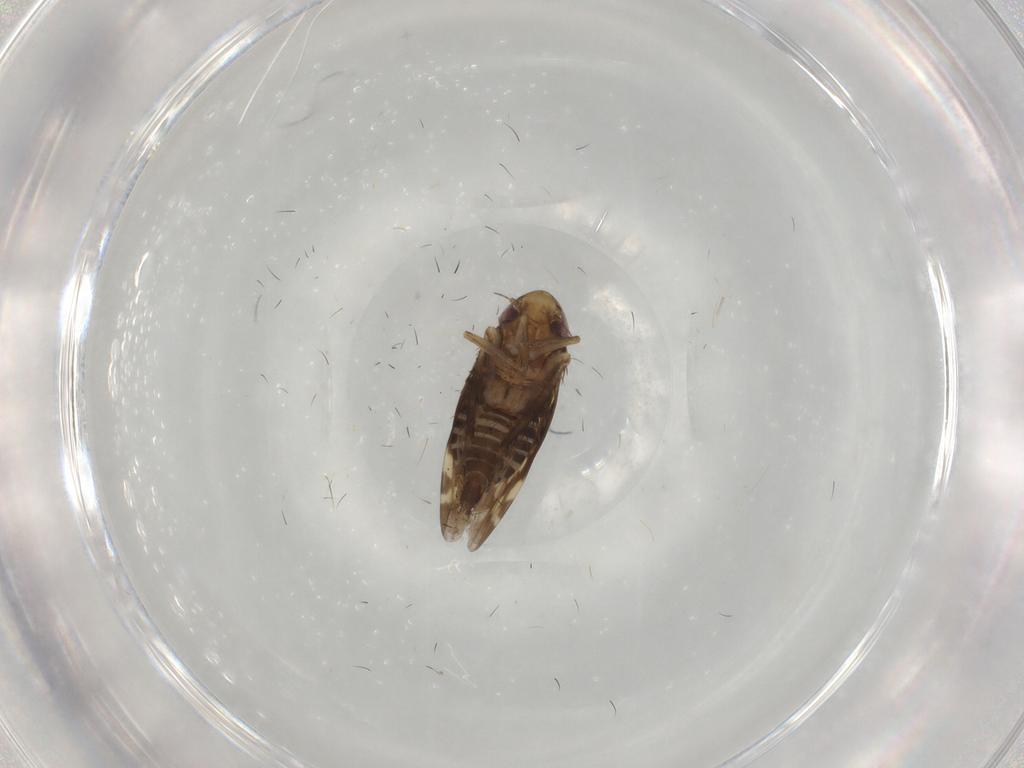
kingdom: Animalia
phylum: Arthropoda
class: Insecta
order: Hemiptera
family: Cicadellidae
